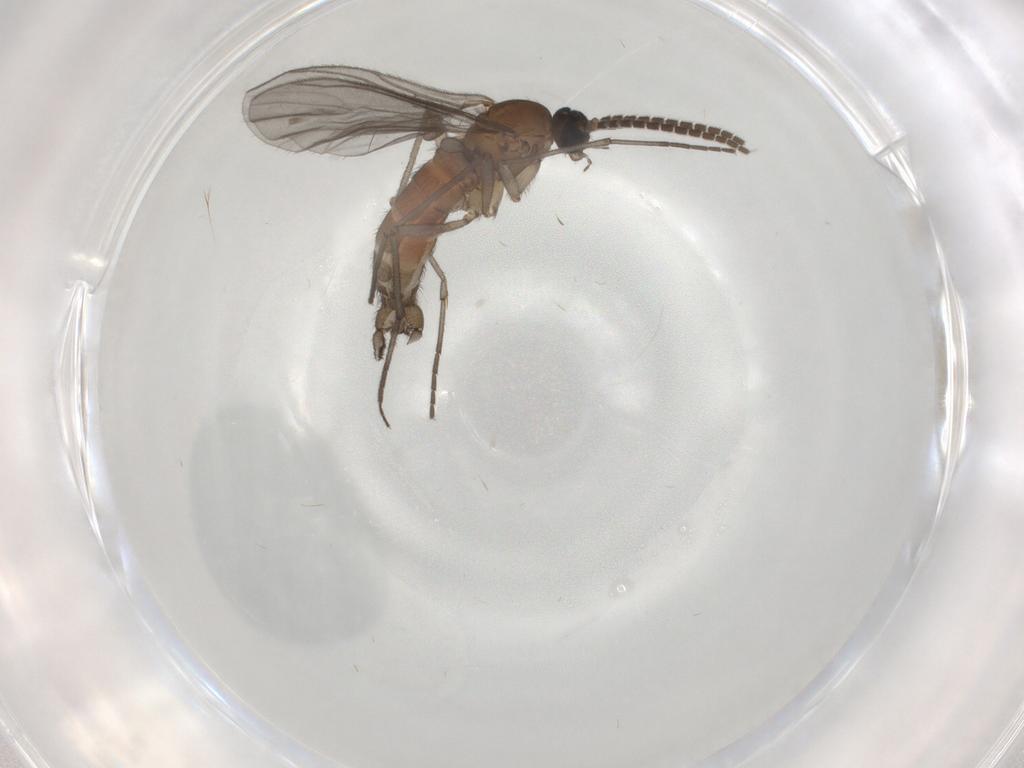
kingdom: Animalia
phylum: Arthropoda
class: Insecta
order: Diptera
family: Sciaridae
